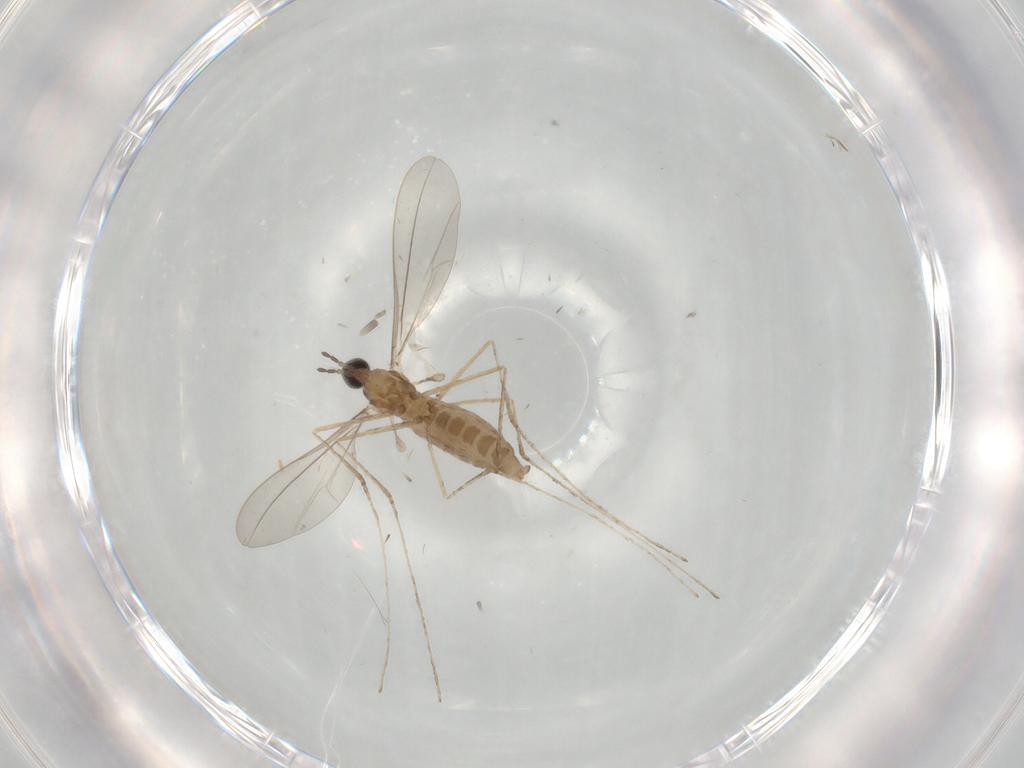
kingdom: Animalia
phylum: Arthropoda
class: Insecta
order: Diptera
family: Cecidomyiidae
